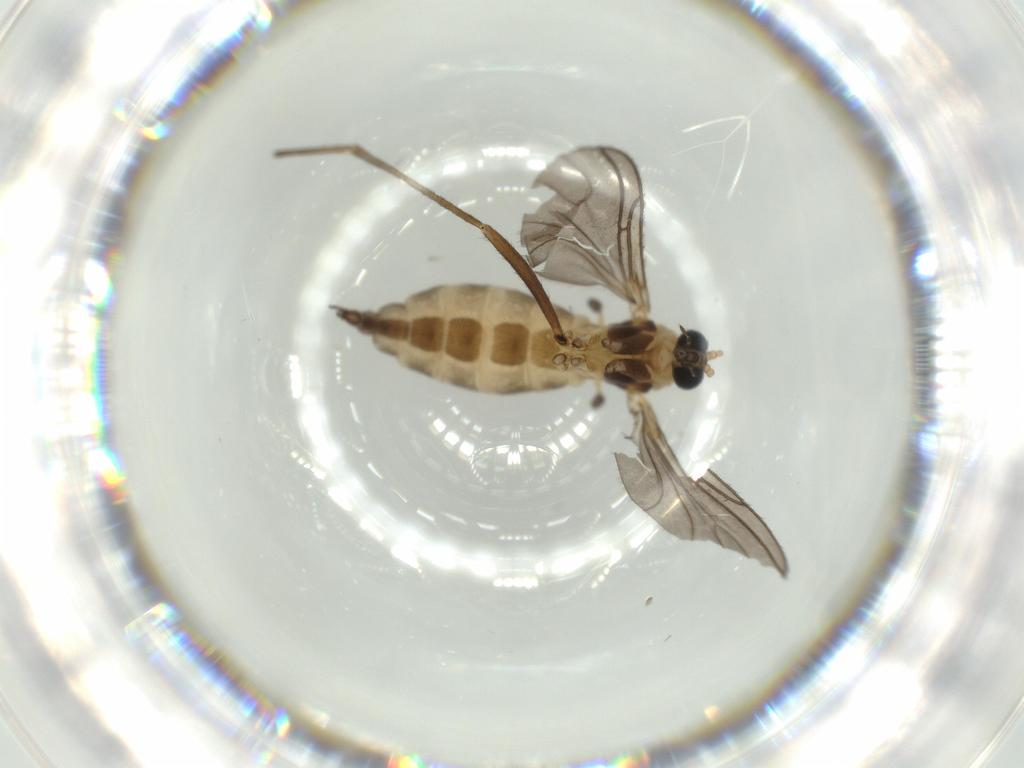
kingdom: Animalia
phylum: Arthropoda
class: Insecta
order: Diptera
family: Sciaridae
